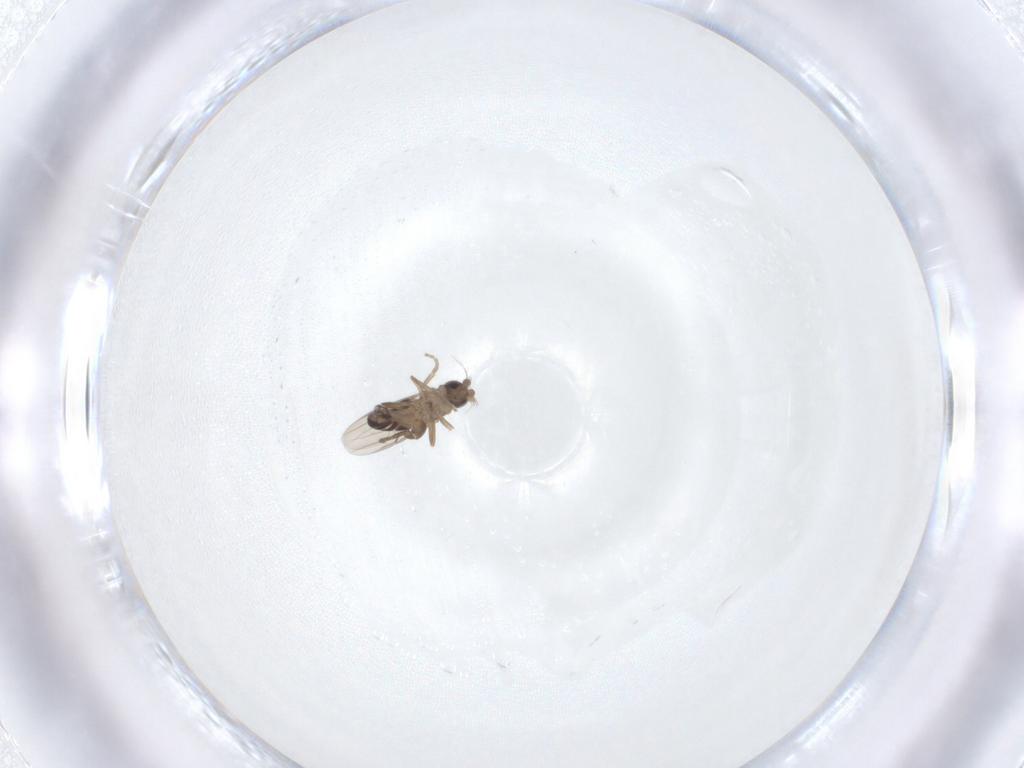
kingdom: Animalia
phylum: Arthropoda
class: Insecta
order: Diptera
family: Phoridae
